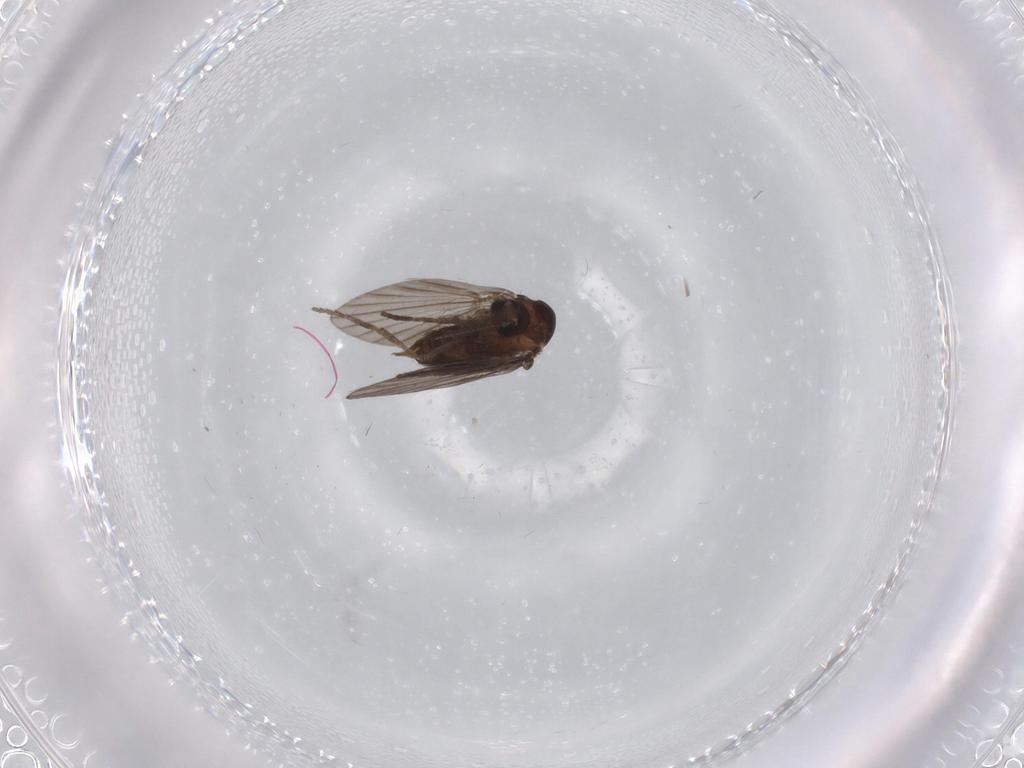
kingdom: Animalia
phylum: Arthropoda
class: Insecta
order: Diptera
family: Psychodidae
